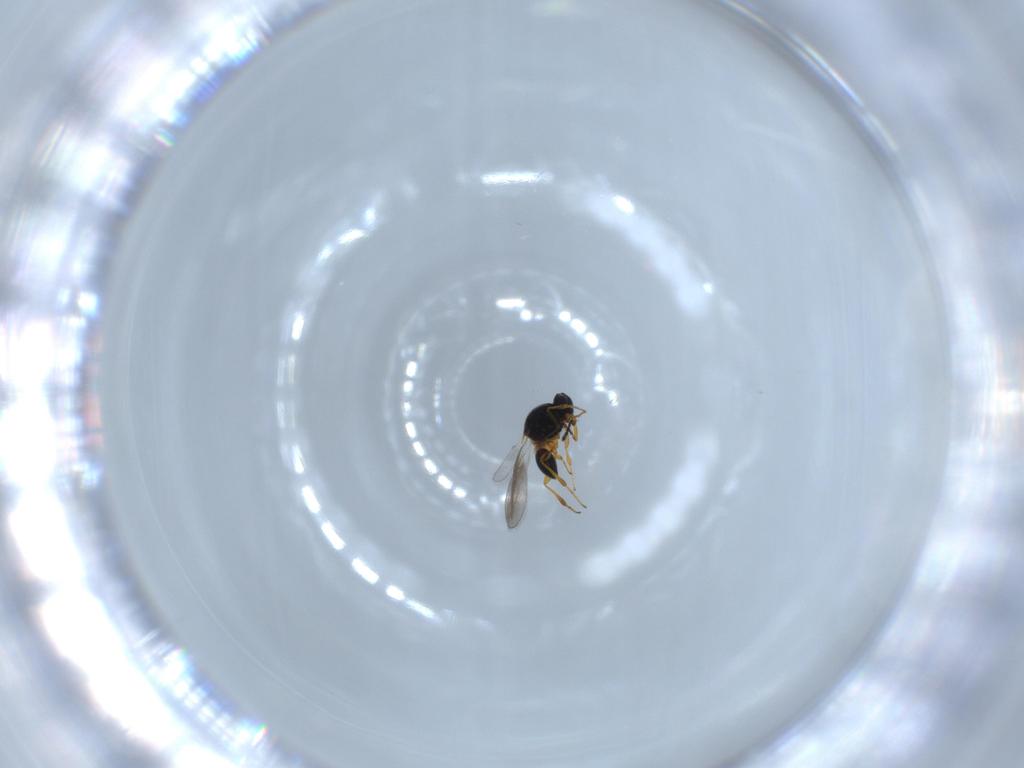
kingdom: Animalia
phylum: Arthropoda
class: Insecta
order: Hymenoptera
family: Platygastridae
